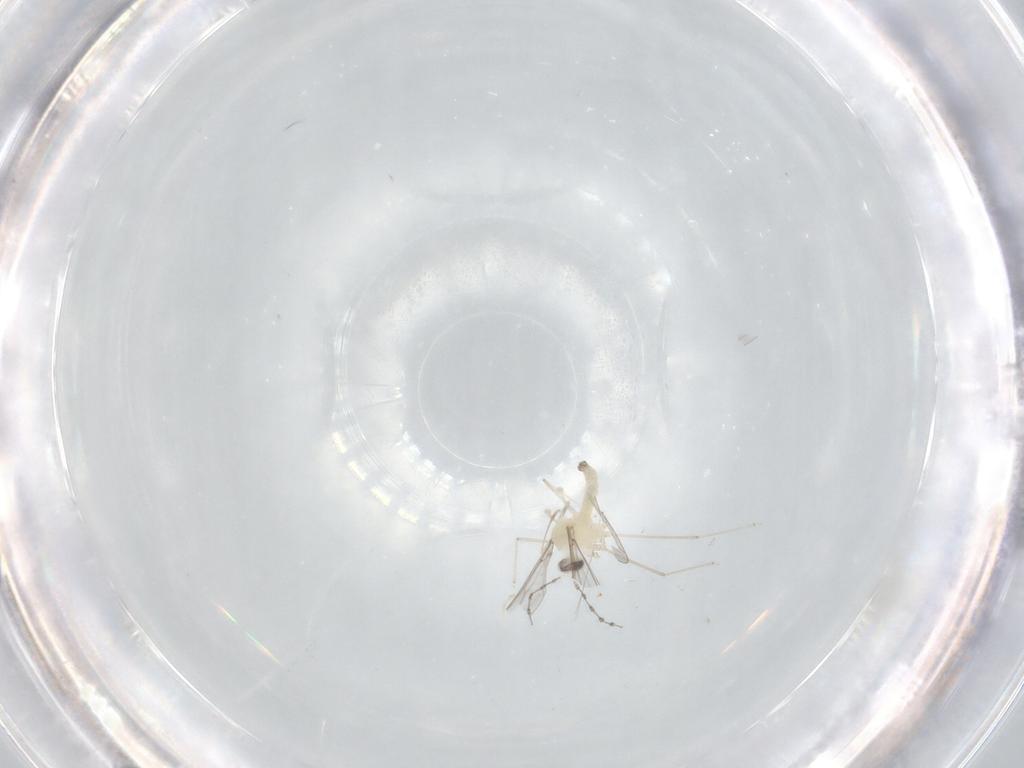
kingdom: Animalia
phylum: Arthropoda
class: Insecta
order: Diptera
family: Cecidomyiidae
